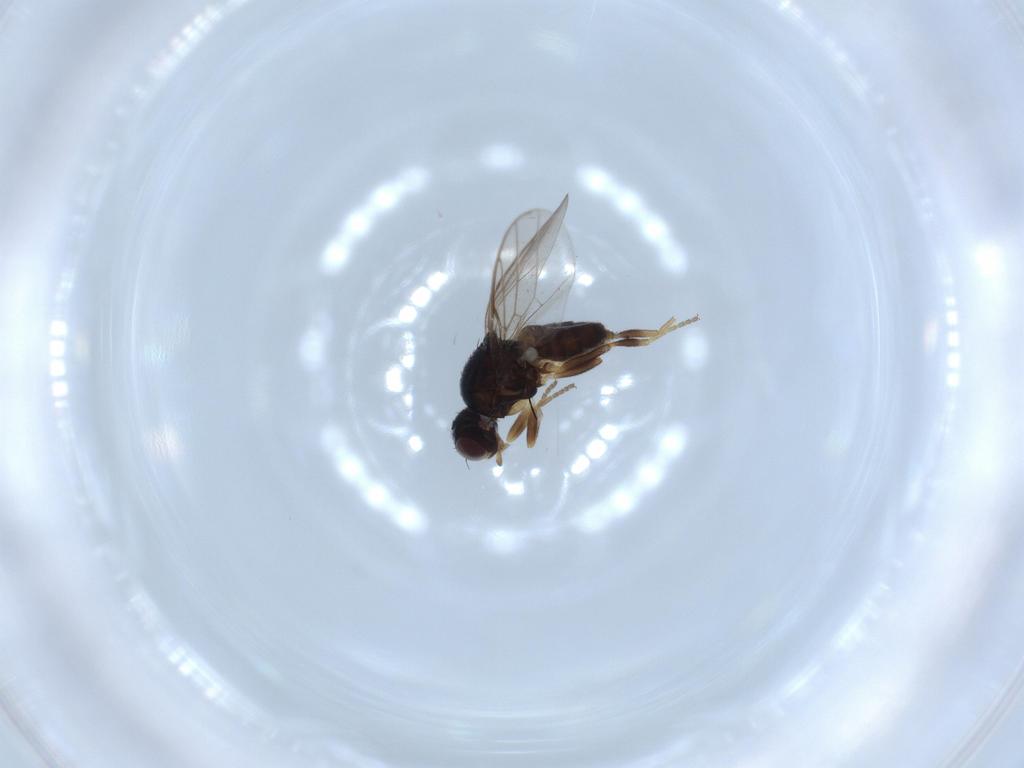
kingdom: Animalia
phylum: Arthropoda
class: Insecta
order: Diptera
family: Chloropidae
